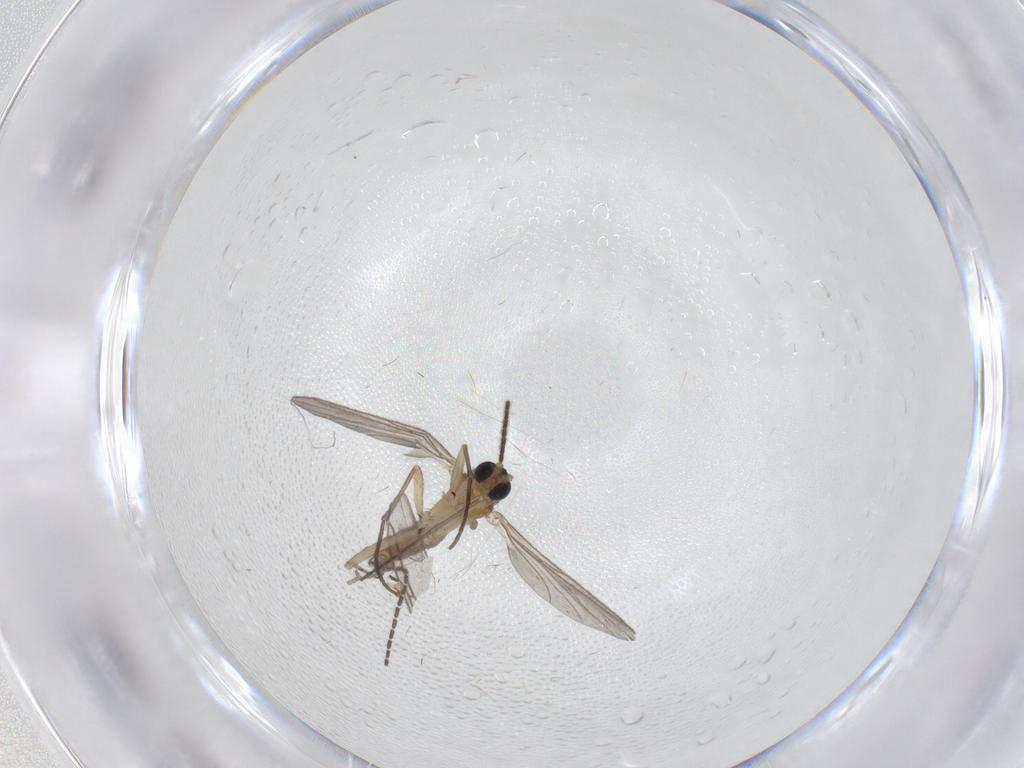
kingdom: Animalia
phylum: Arthropoda
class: Insecta
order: Diptera
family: Sciaridae
